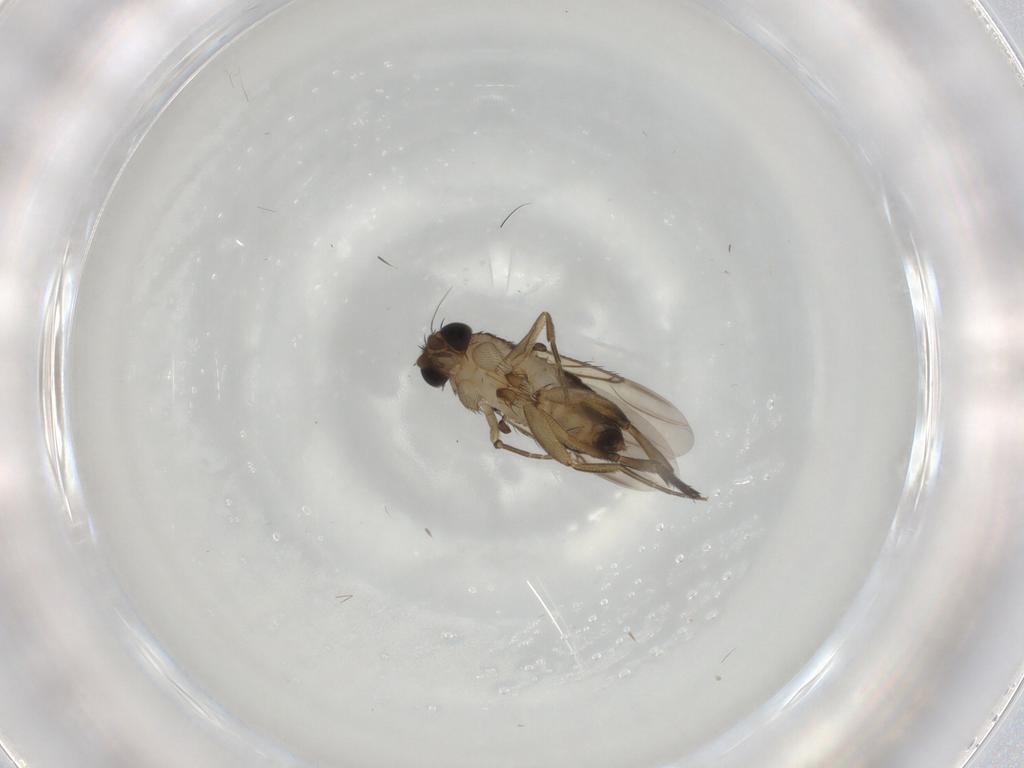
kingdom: Animalia
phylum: Arthropoda
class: Insecta
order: Diptera
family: Phoridae
